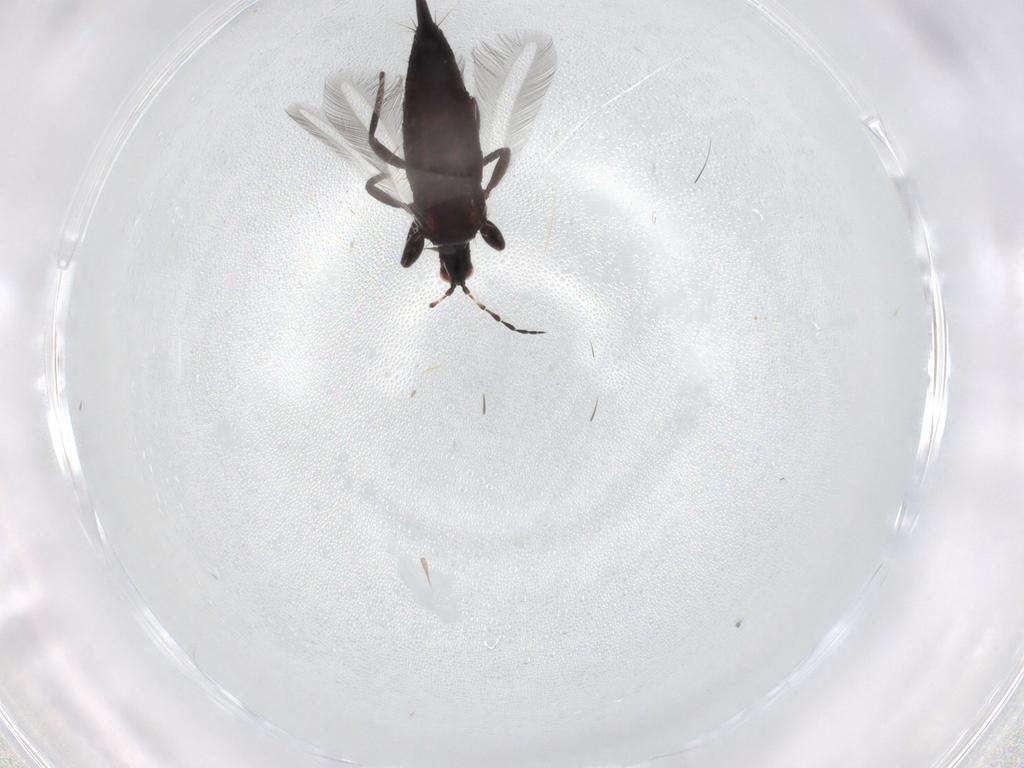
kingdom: Animalia
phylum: Arthropoda
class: Insecta
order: Thysanoptera
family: Phlaeothripidae
